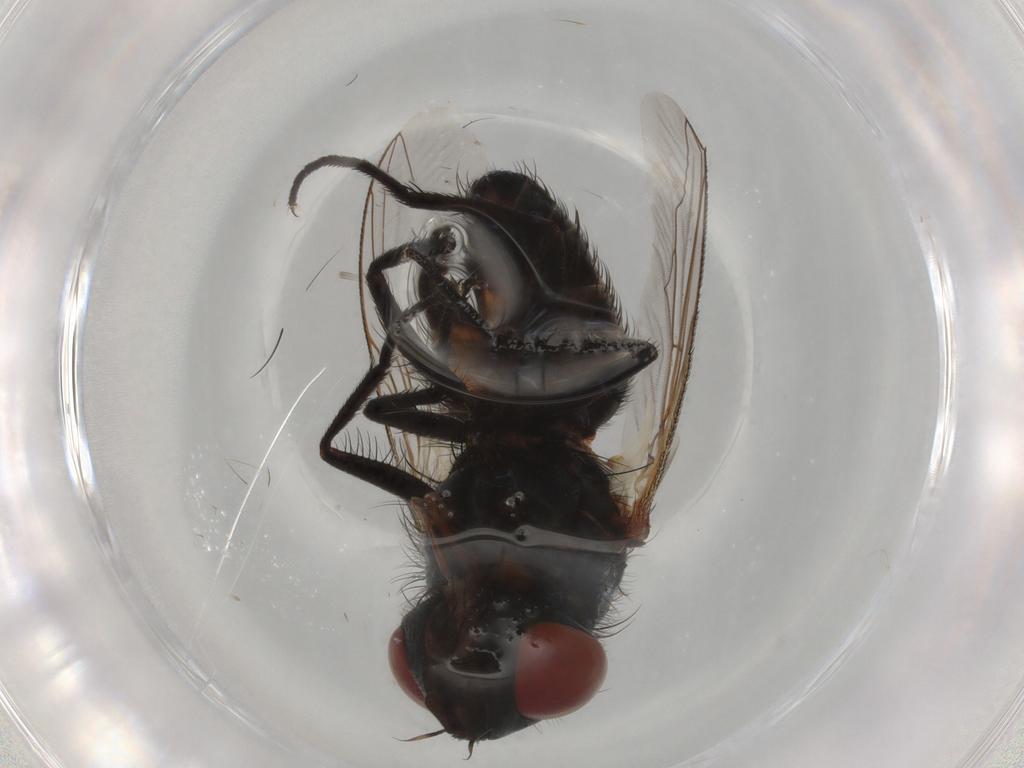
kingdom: Animalia
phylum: Arthropoda
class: Insecta
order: Diptera
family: Sarcophagidae
